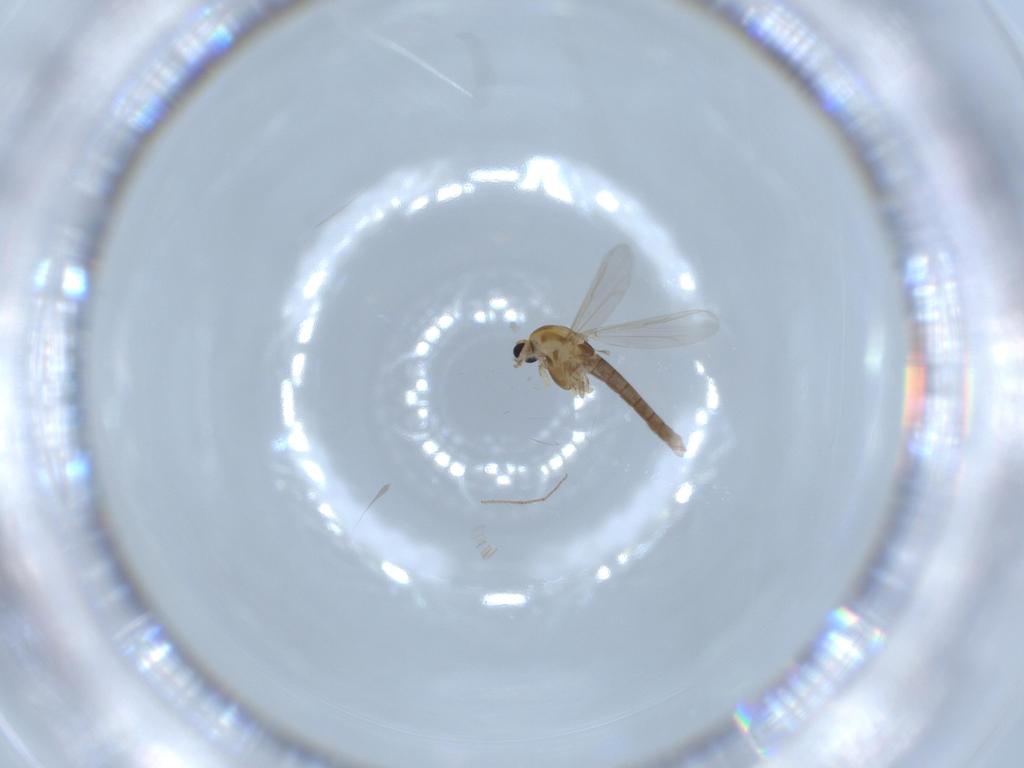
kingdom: Animalia
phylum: Arthropoda
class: Insecta
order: Diptera
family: Chironomidae
